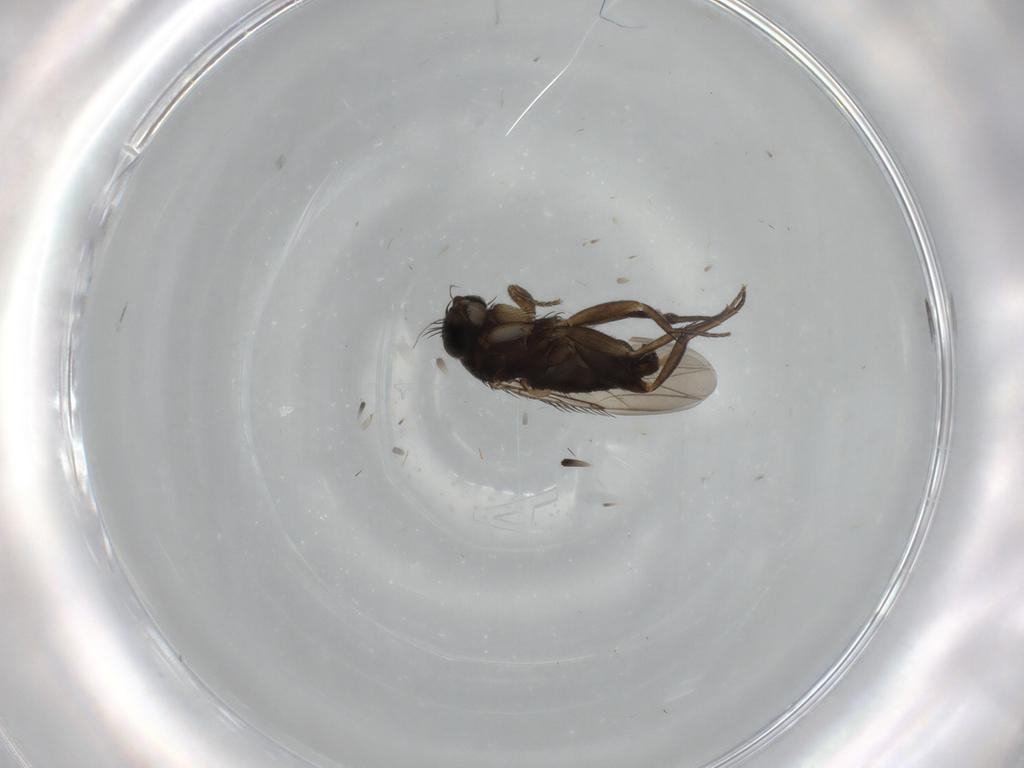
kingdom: Animalia
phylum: Arthropoda
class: Insecta
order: Diptera
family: Phoridae
